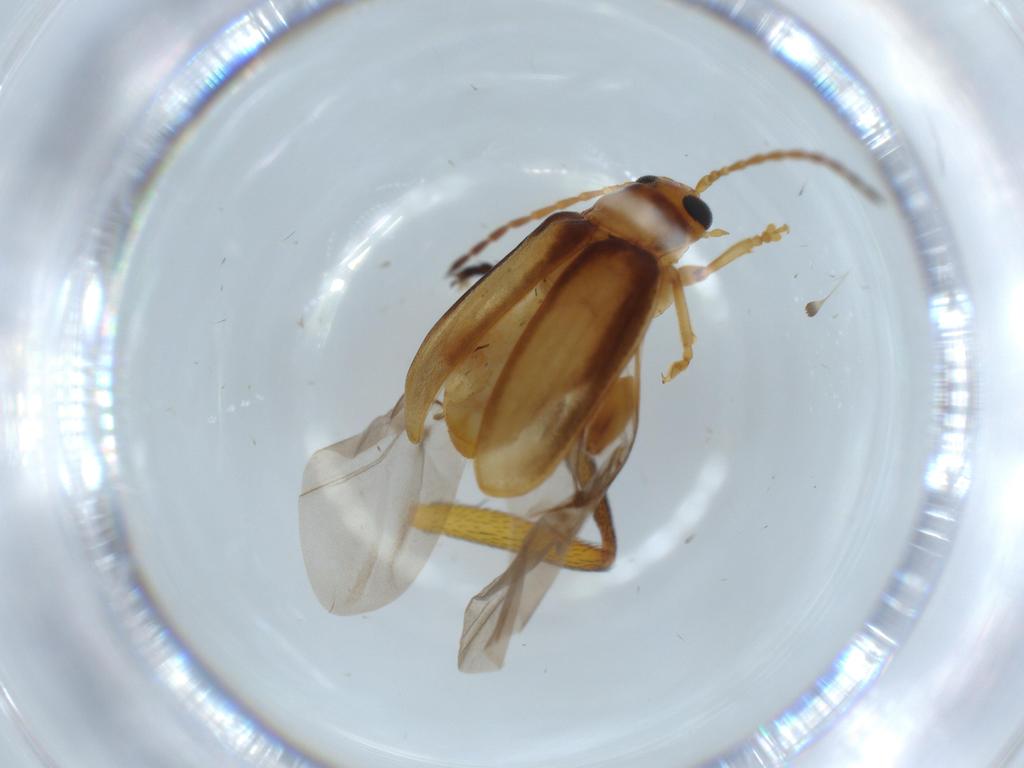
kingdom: Animalia
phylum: Arthropoda
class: Insecta
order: Coleoptera
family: Chrysomelidae
